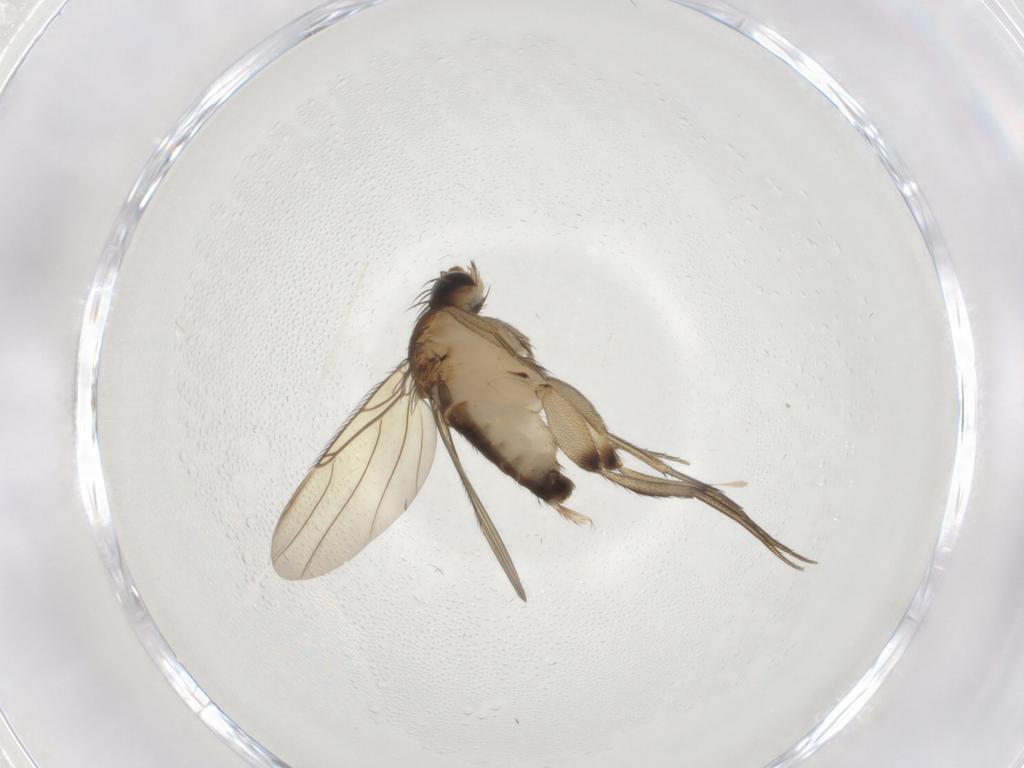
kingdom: Animalia
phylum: Arthropoda
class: Insecta
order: Diptera
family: Phoridae
